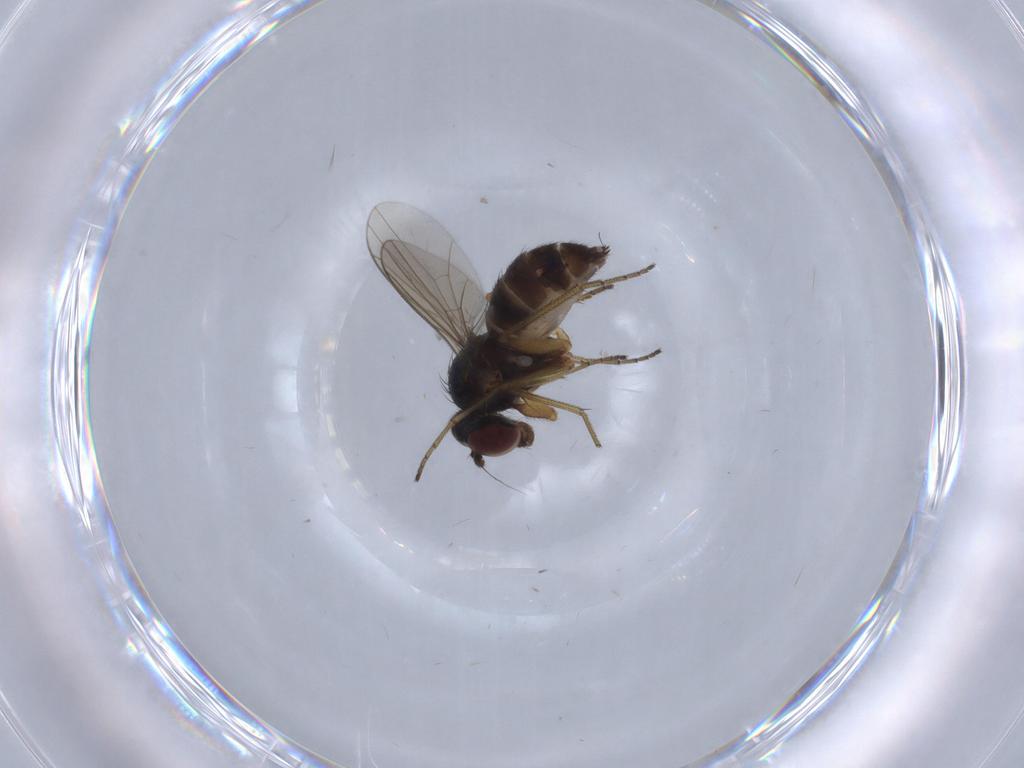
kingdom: Animalia
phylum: Arthropoda
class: Insecta
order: Diptera
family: Dolichopodidae
